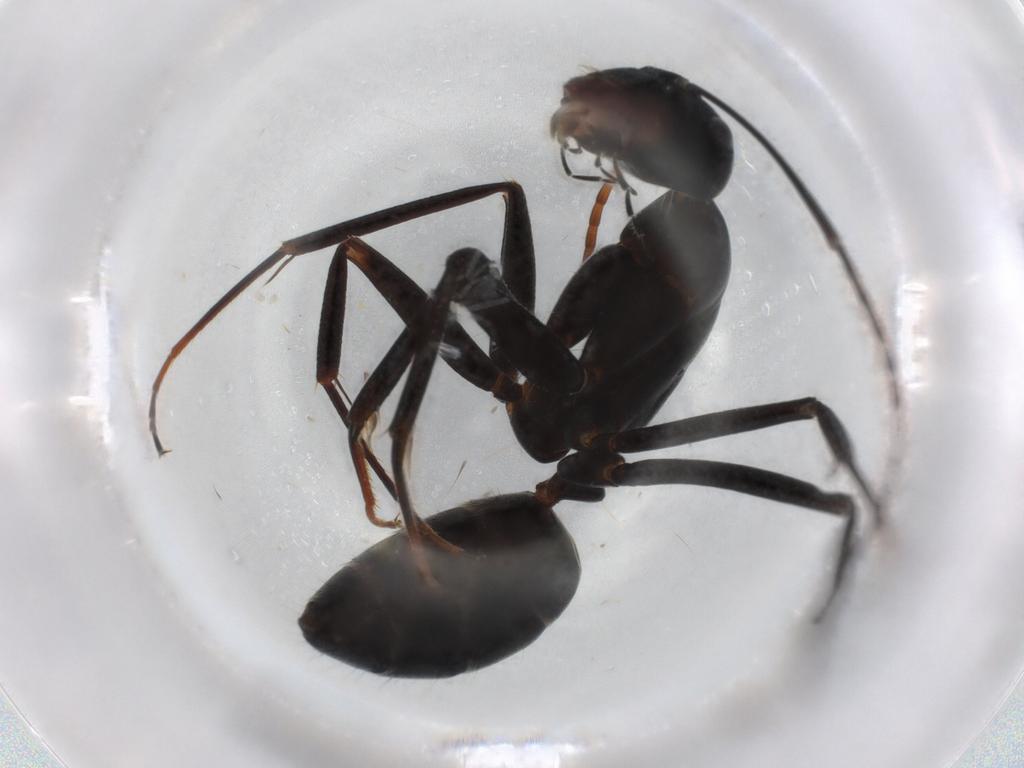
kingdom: Animalia
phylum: Arthropoda
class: Insecta
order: Hymenoptera
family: Formicidae
